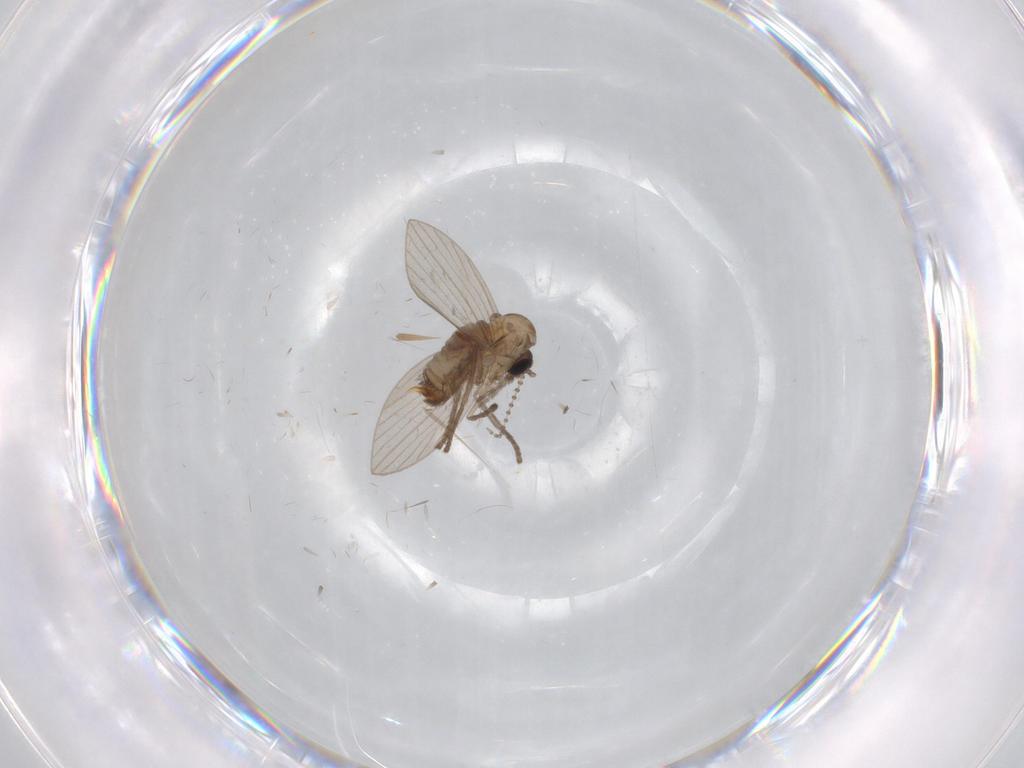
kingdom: Animalia
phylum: Arthropoda
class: Insecta
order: Diptera
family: Psychodidae
